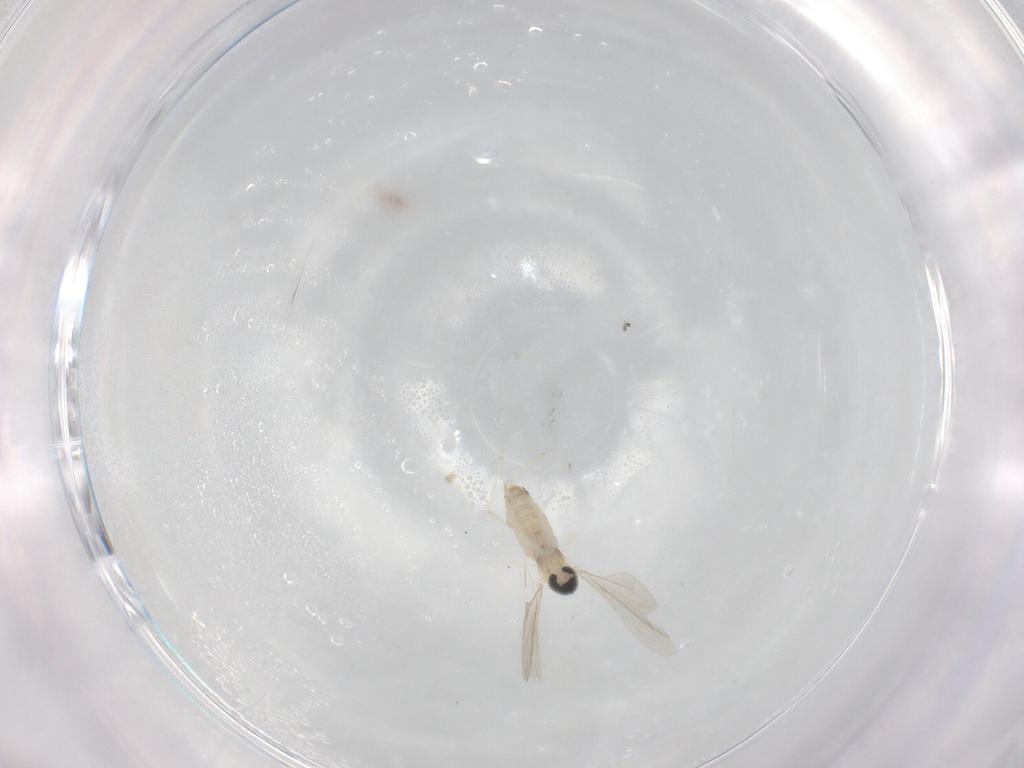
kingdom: Animalia
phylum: Arthropoda
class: Insecta
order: Diptera
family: Cecidomyiidae
